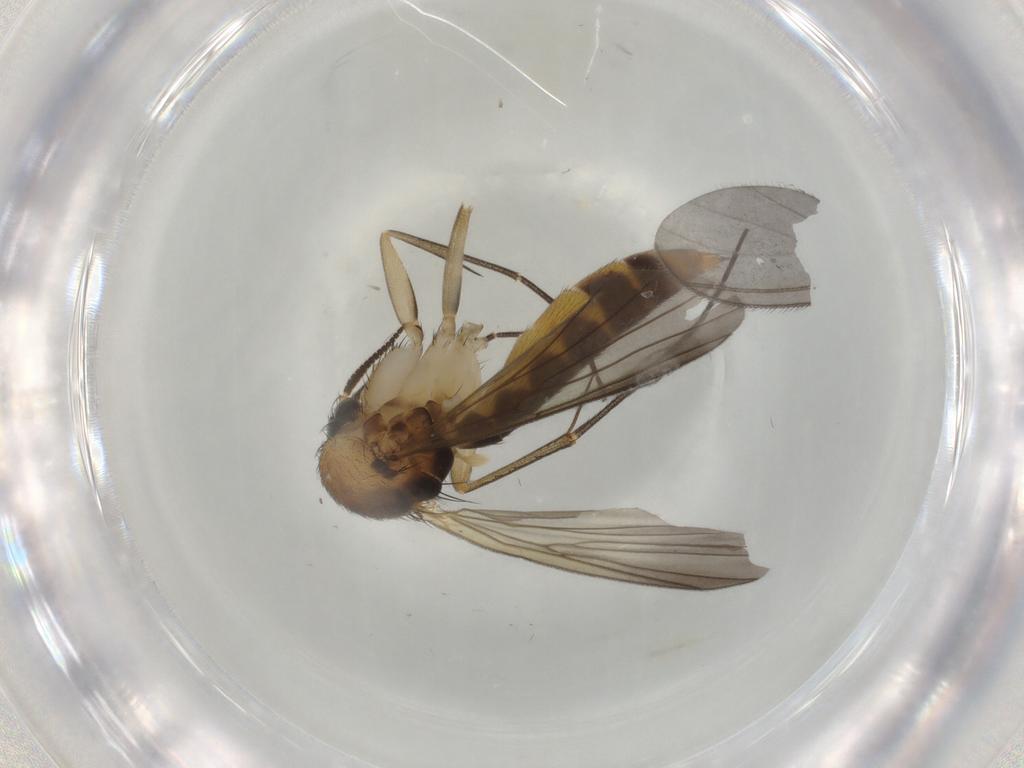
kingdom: Animalia
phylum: Arthropoda
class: Insecta
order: Diptera
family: Mycetophilidae
